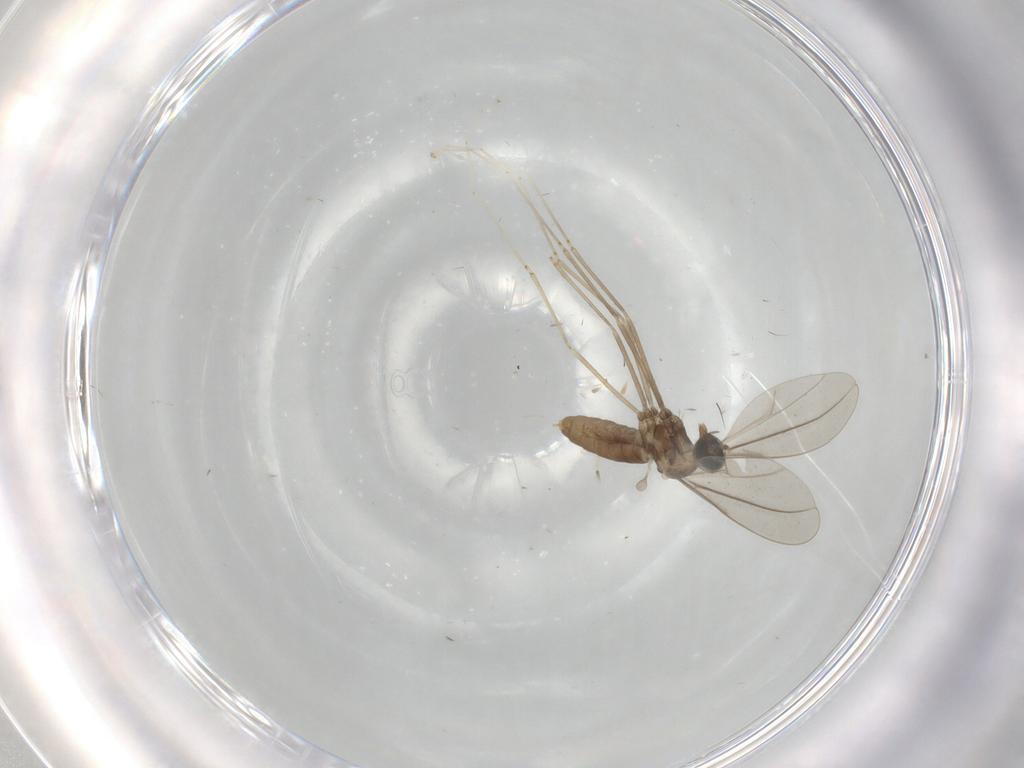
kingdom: Animalia
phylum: Arthropoda
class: Insecta
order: Diptera
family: Cecidomyiidae
